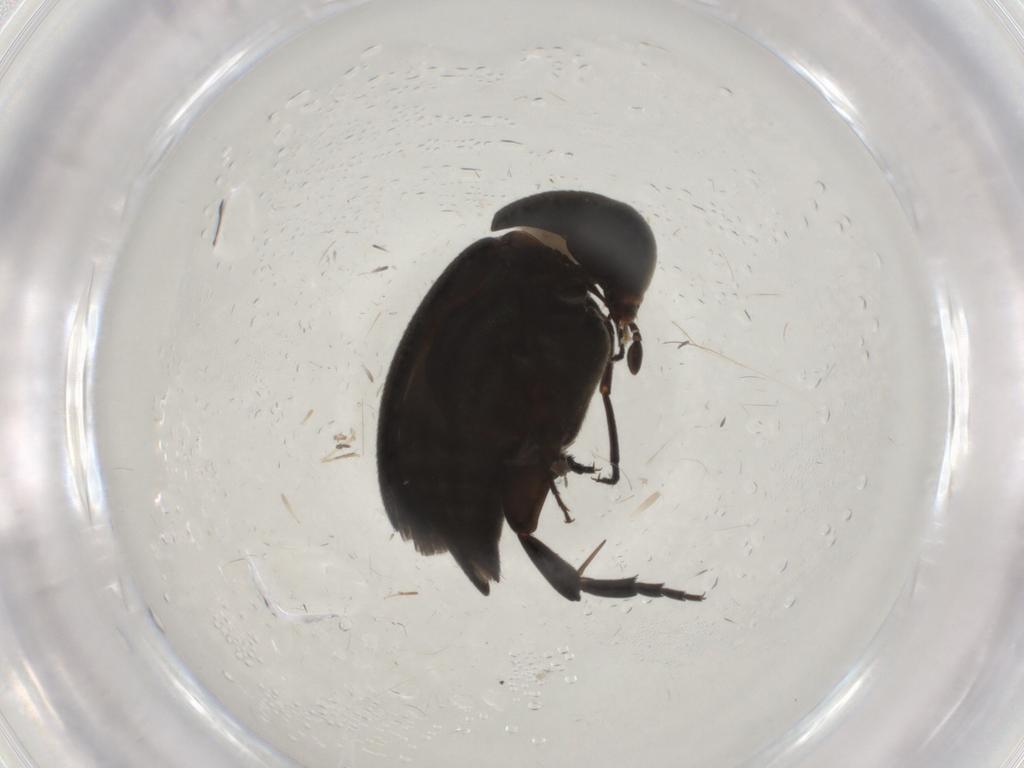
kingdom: Animalia
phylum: Arthropoda
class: Insecta
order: Coleoptera
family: Mordellidae
